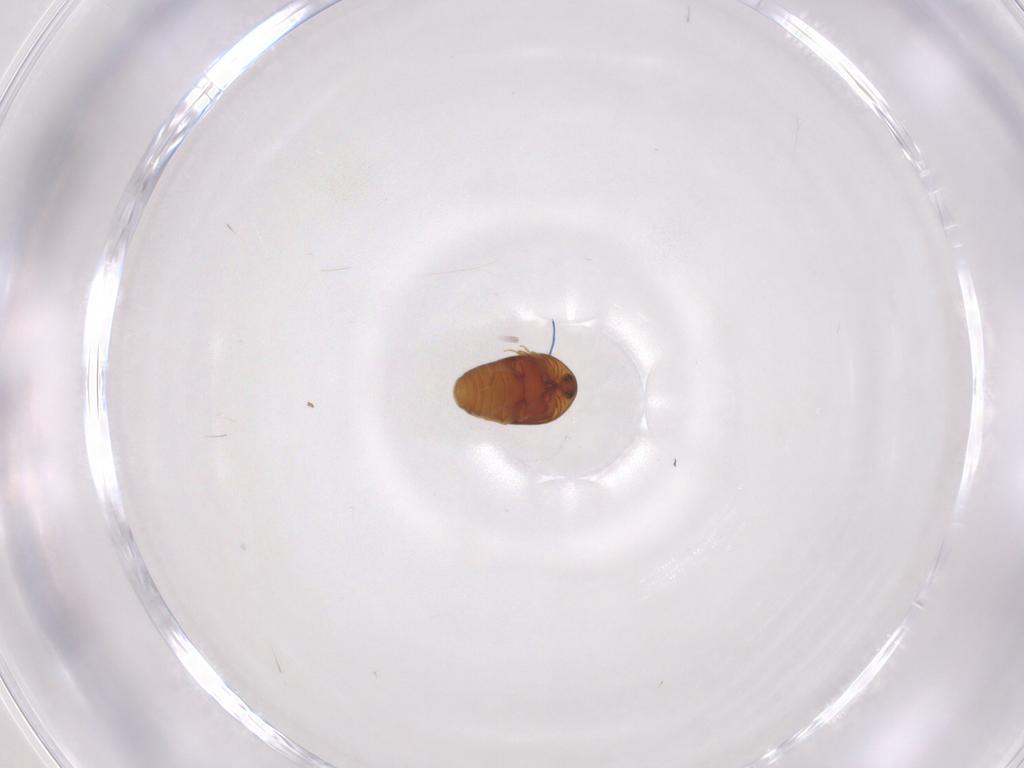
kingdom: Animalia
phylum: Arthropoda
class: Insecta
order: Coleoptera
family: Corylophidae
